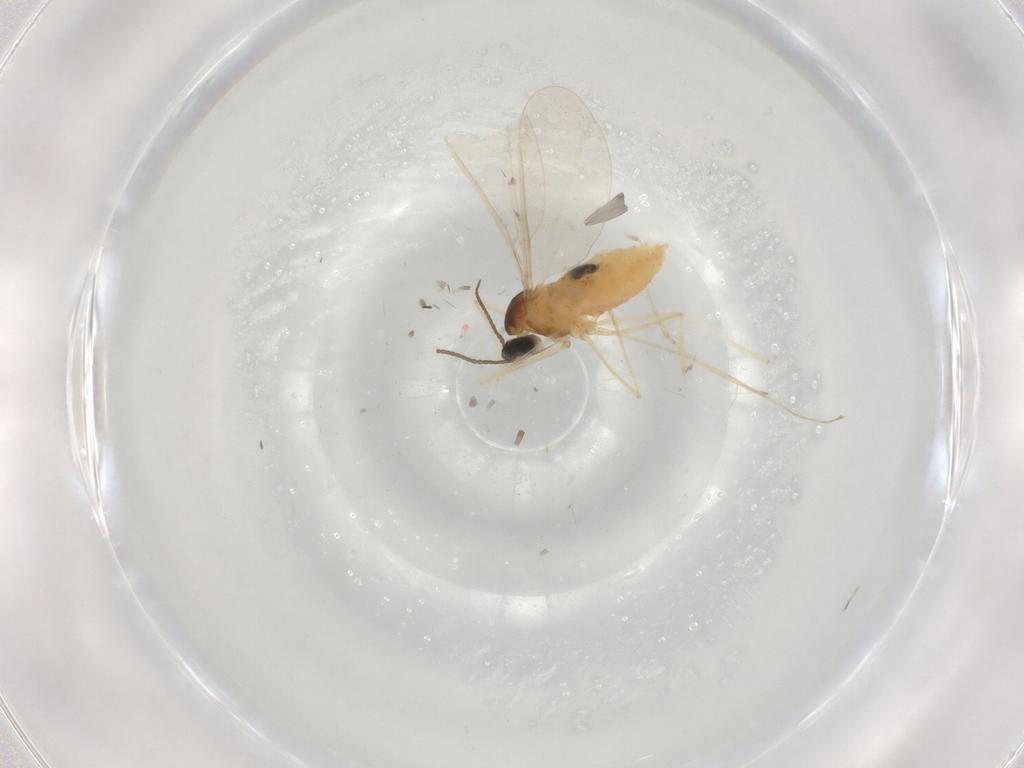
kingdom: Animalia
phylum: Arthropoda
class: Insecta
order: Diptera
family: Cecidomyiidae
